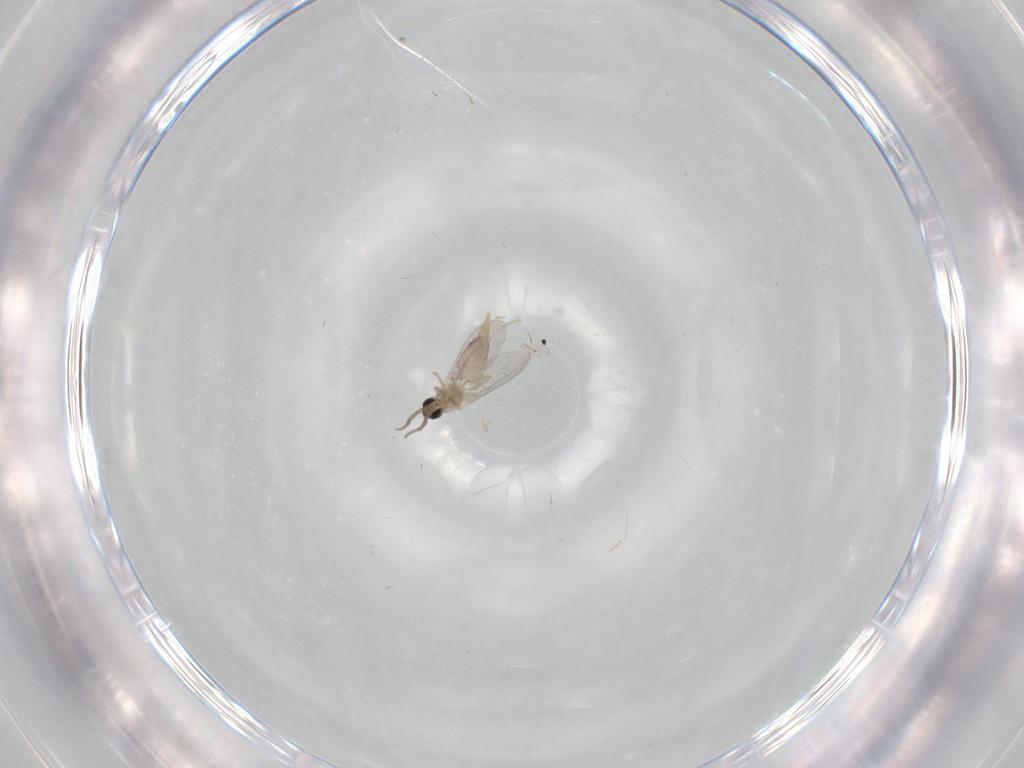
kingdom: Animalia
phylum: Arthropoda
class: Insecta
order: Diptera
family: Cecidomyiidae
